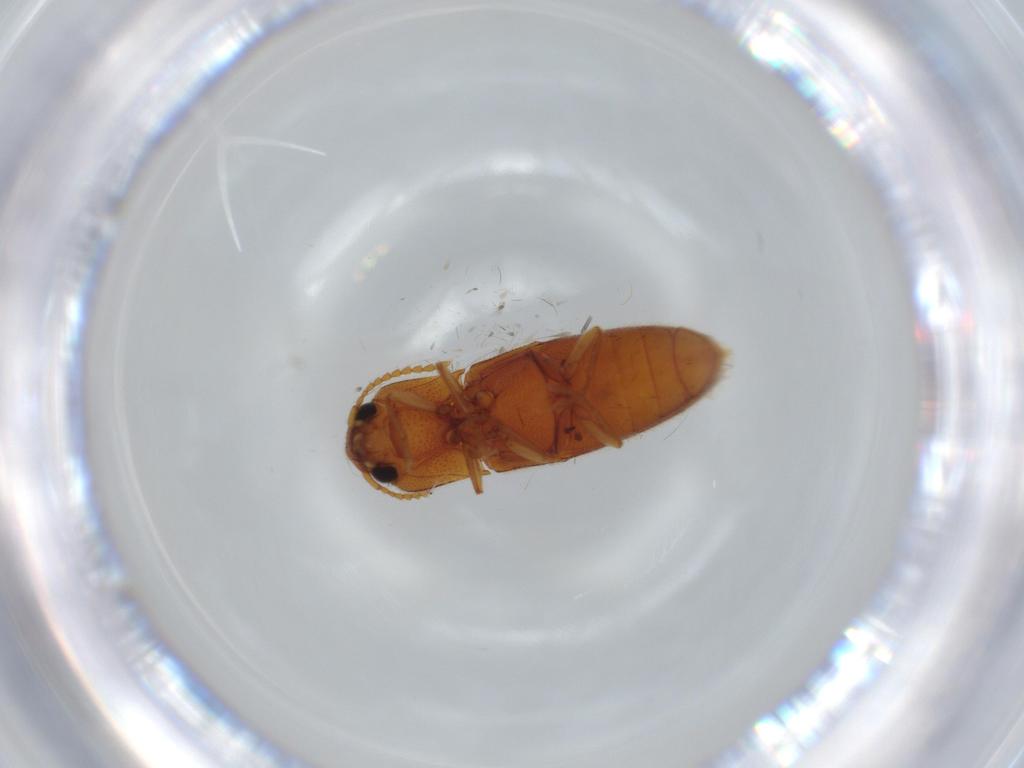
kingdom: Animalia
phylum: Arthropoda
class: Insecta
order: Coleoptera
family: Elateridae
